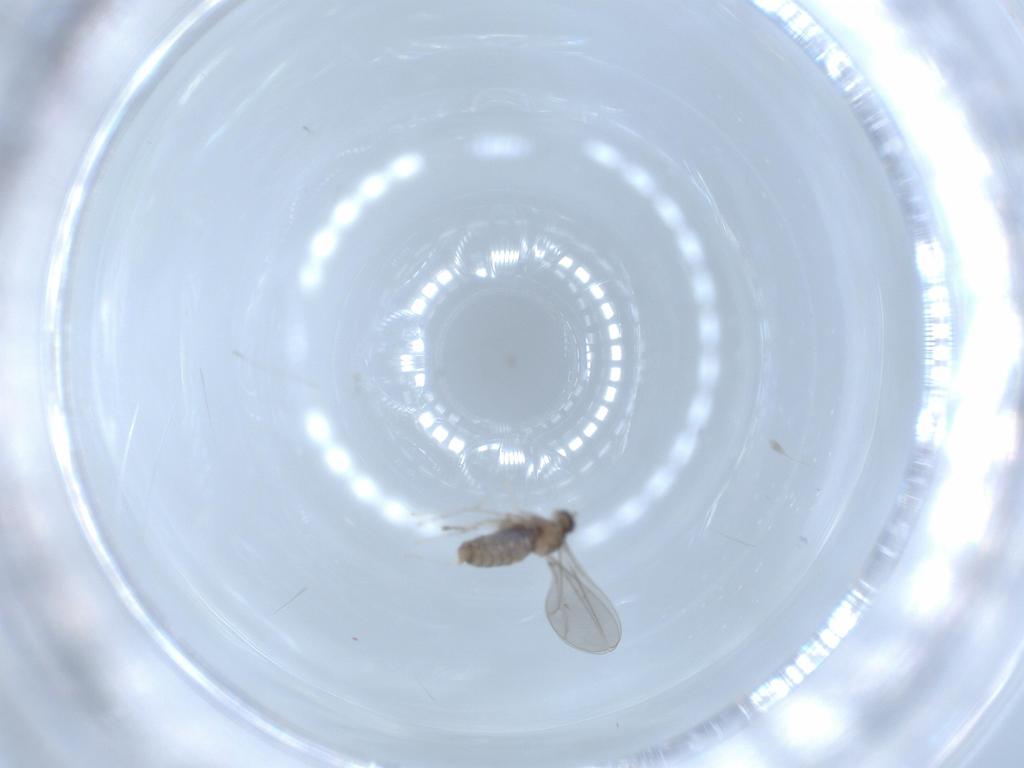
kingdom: Animalia
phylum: Arthropoda
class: Insecta
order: Diptera
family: Cecidomyiidae
